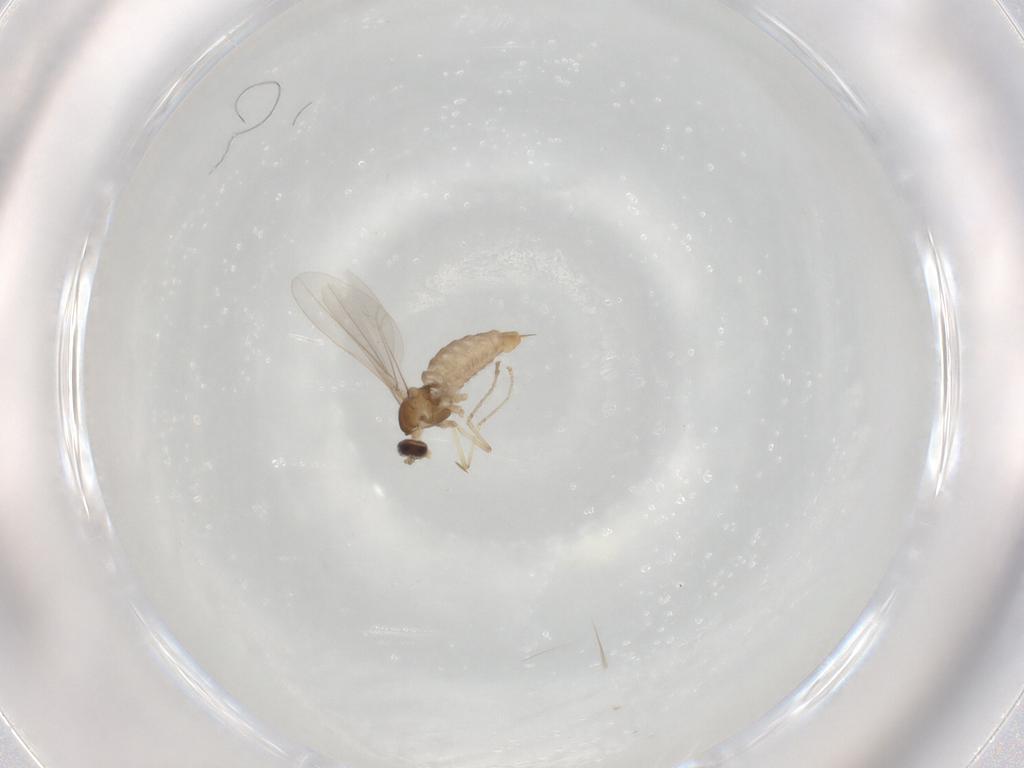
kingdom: Animalia
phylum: Arthropoda
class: Insecta
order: Diptera
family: Cecidomyiidae
